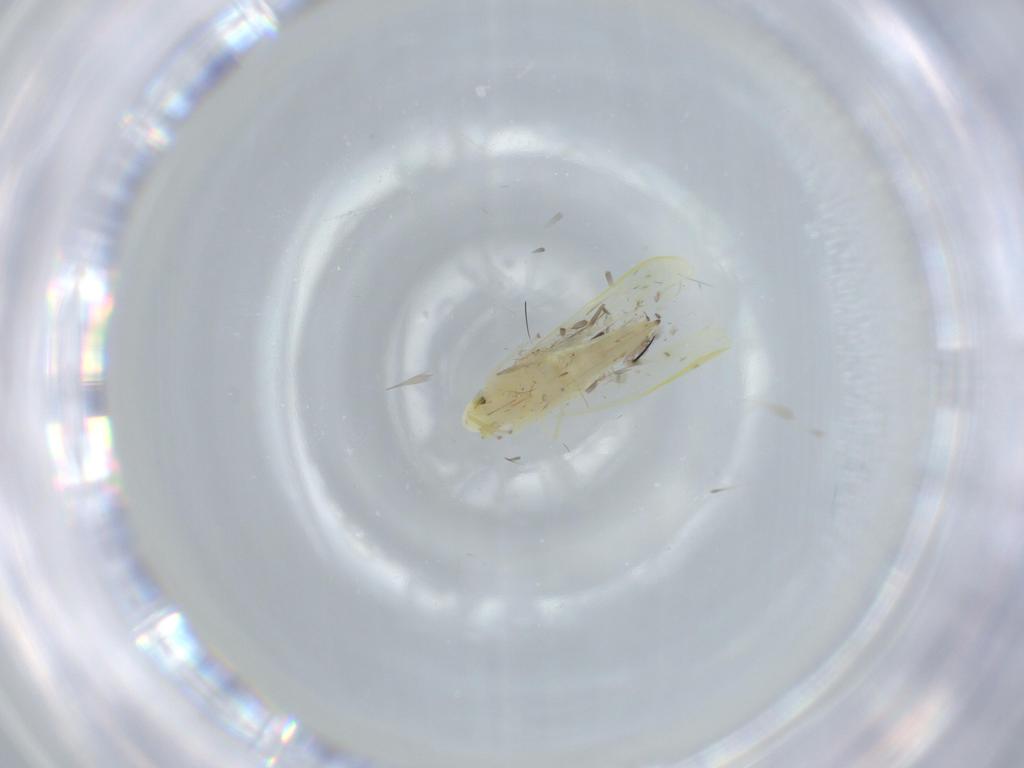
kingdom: Animalia
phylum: Arthropoda
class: Insecta
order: Hemiptera
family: Cicadellidae
